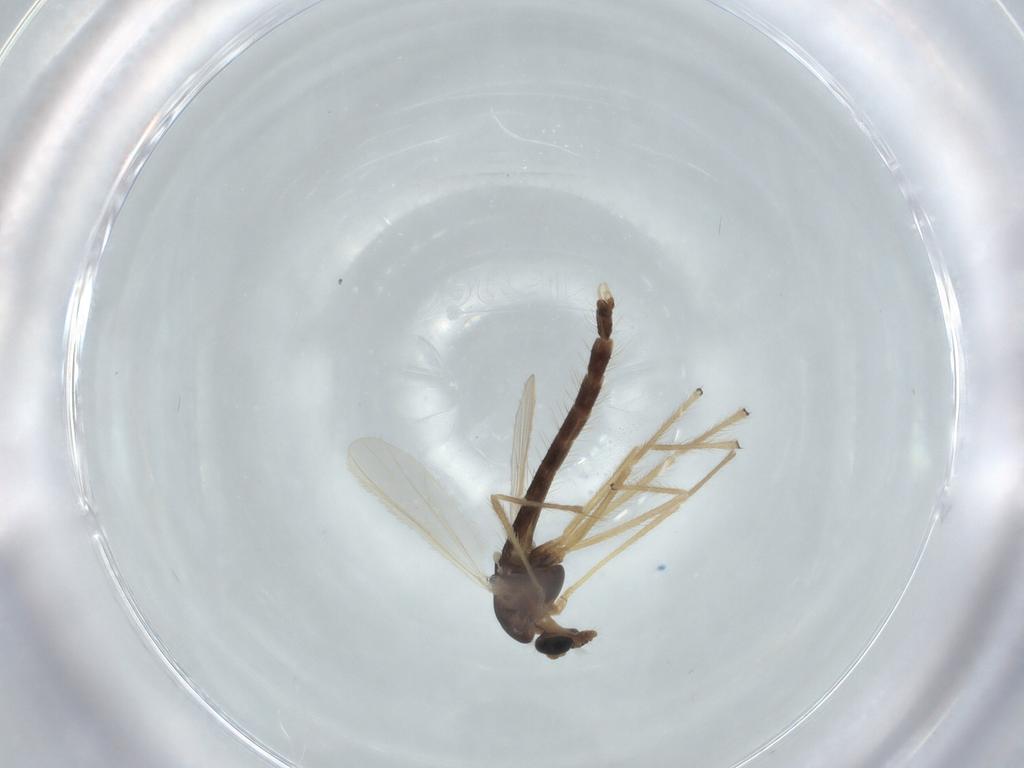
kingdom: Animalia
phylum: Arthropoda
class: Insecta
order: Diptera
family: Chironomidae
